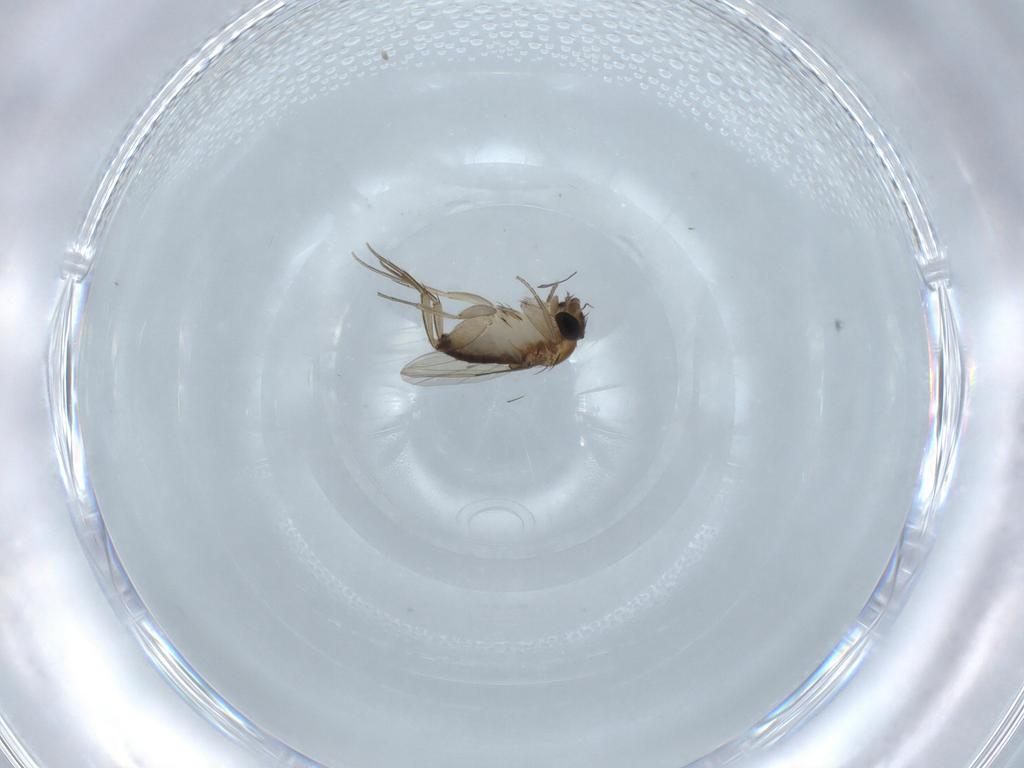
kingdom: Animalia
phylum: Arthropoda
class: Insecta
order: Diptera
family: Phoridae
